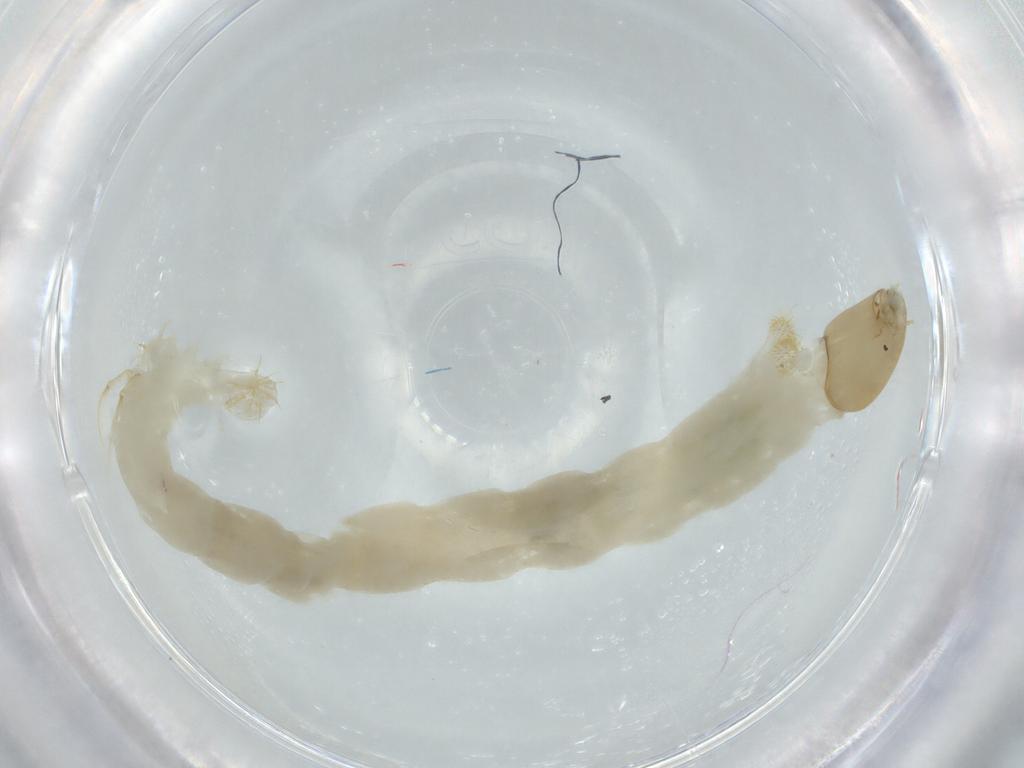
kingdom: Animalia
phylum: Arthropoda
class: Insecta
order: Diptera
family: Chironomidae
